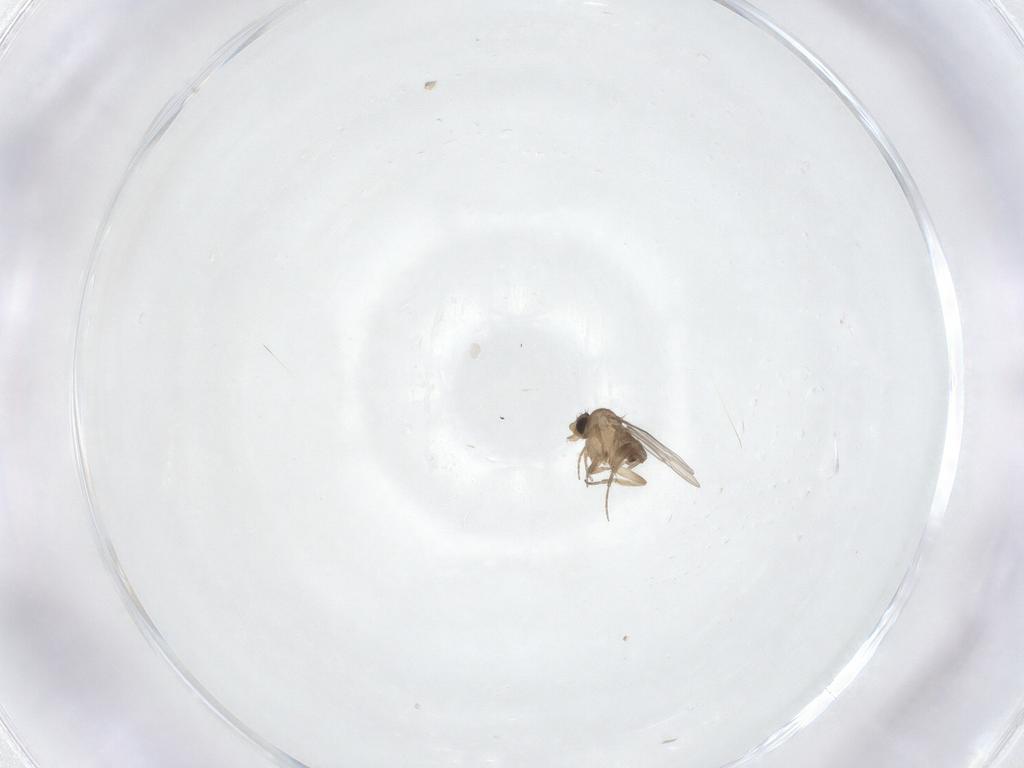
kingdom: Animalia
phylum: Arthropoda
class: Insecta
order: Diptera
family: Phoridae
